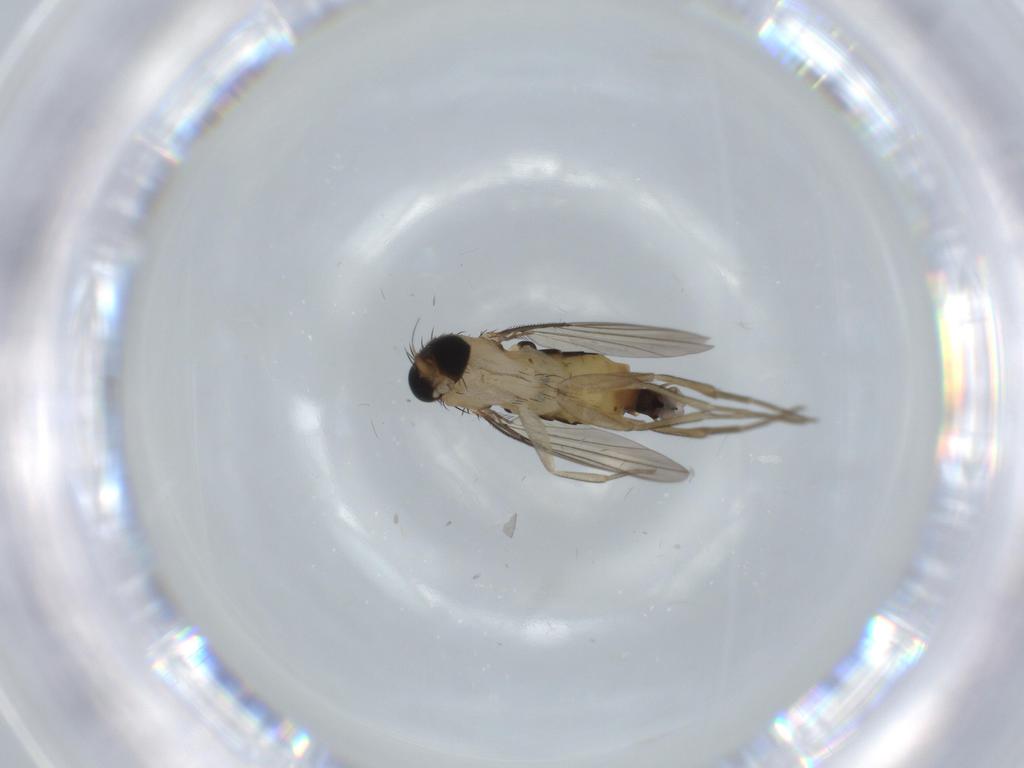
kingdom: Animalia
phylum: Arthropoda
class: Insecta
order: Diptera
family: Phoridae
